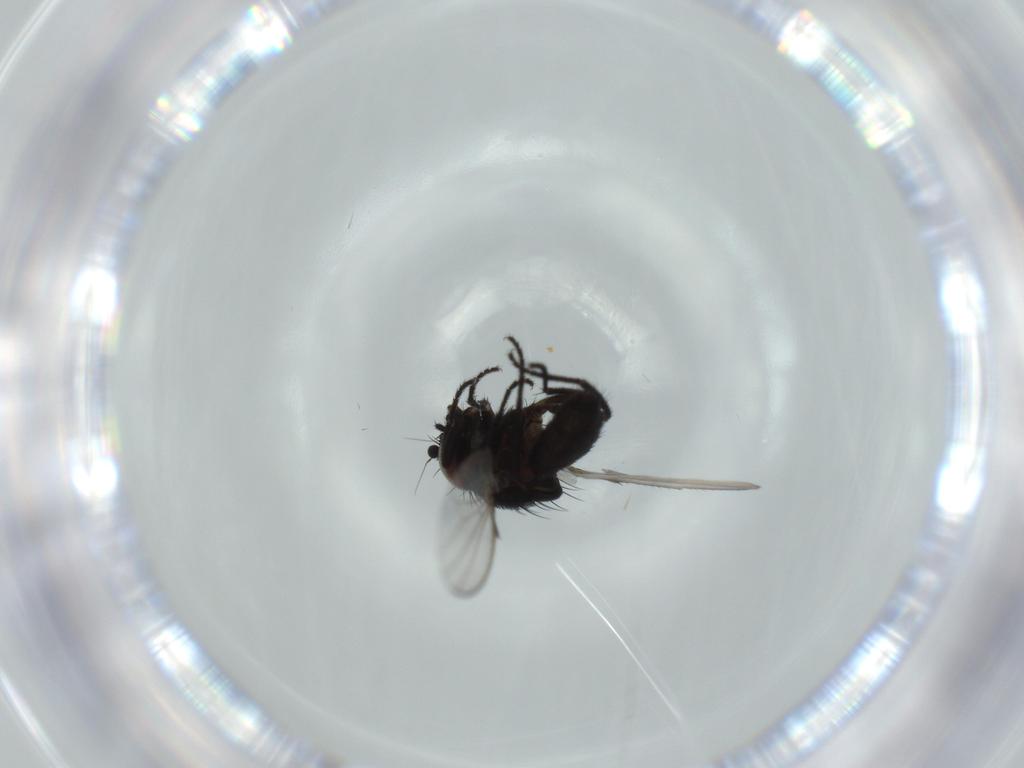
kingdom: Animalia
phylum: Arthropoda
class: Insecta
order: Diptera
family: Milichiidae
